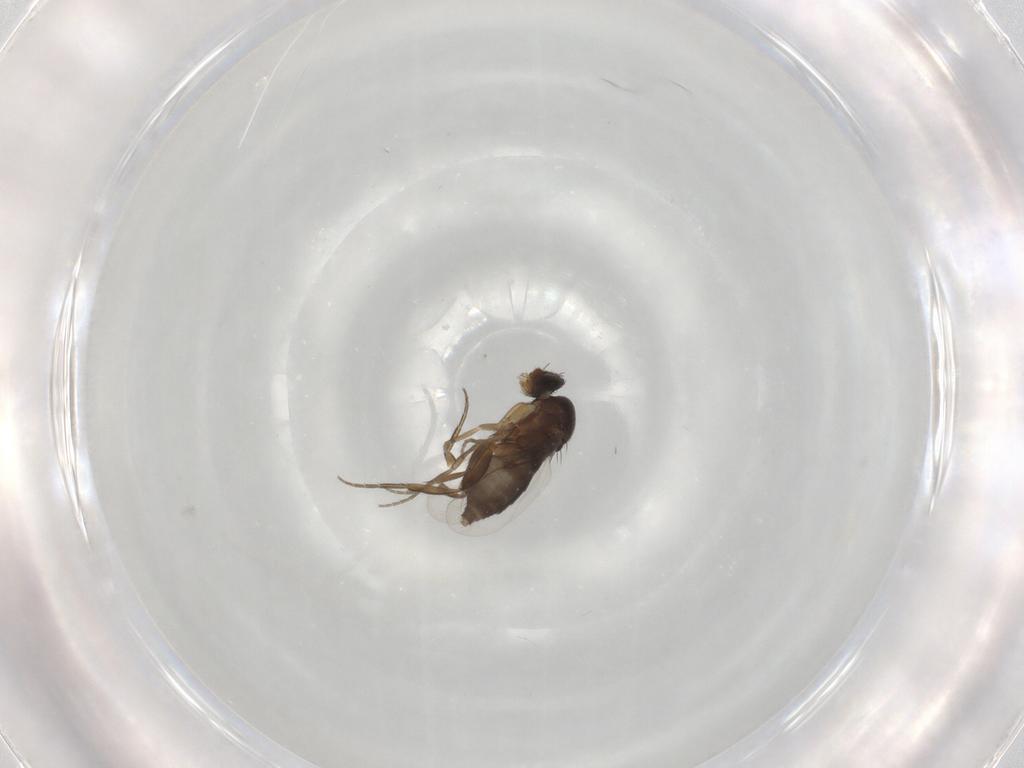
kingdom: Animalia
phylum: Arthropoda
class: Insecta
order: Diptera
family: Phoridae
